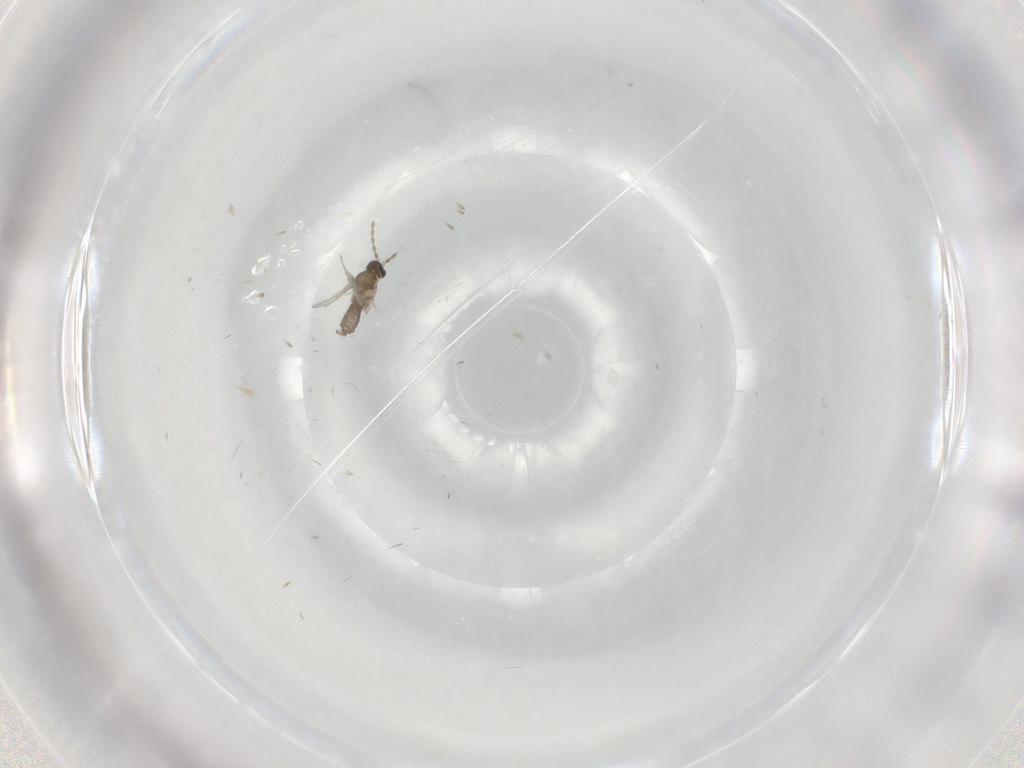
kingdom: Animalia
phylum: Arthropoda
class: Insecta
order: Diptera
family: Cecidomyiidae
